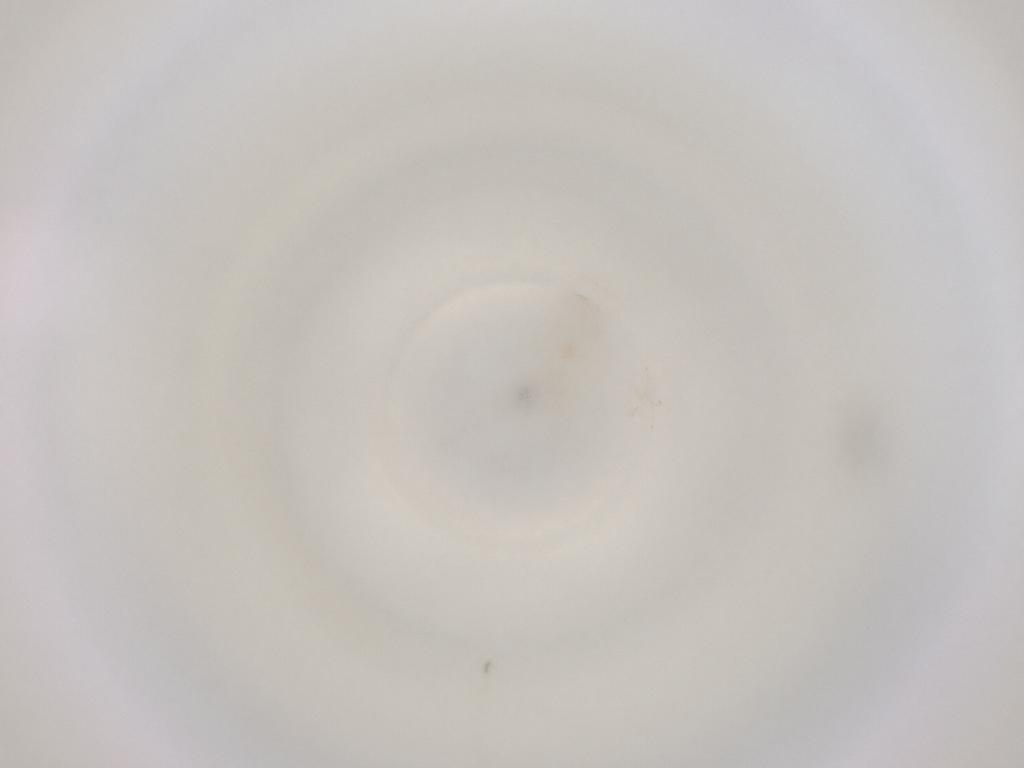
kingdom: Animalia
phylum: Arthropoda
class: Insecta
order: Diptera
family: Cecidomyiidae
